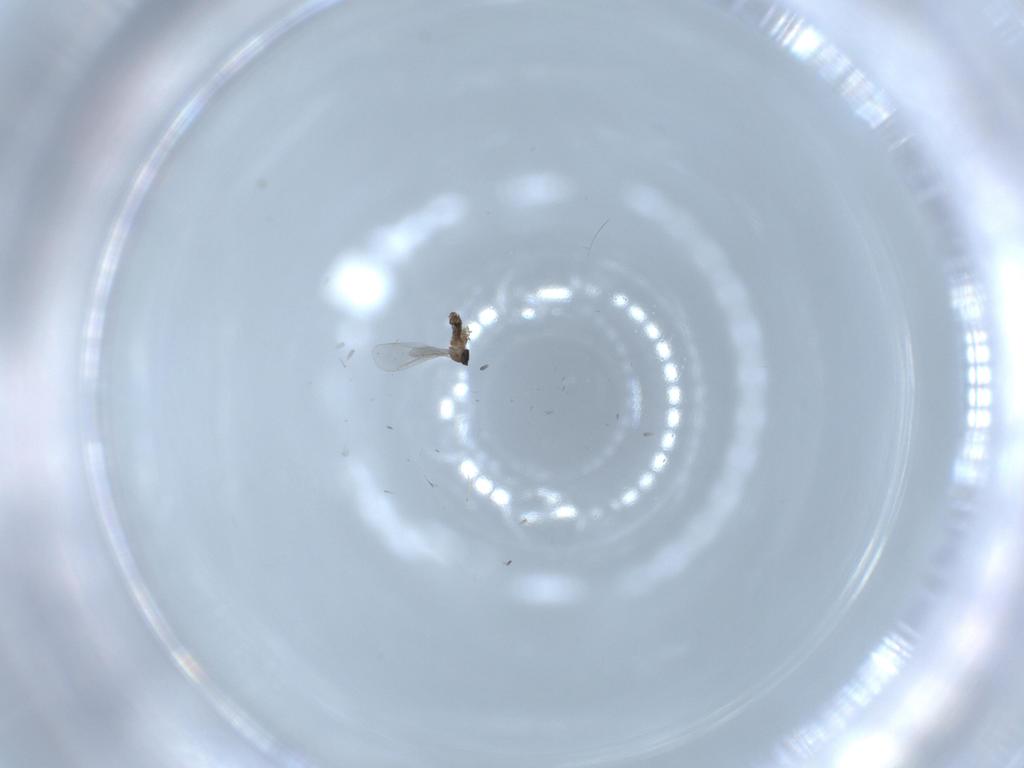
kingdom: Animalia
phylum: Arthropoda
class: Insecta
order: Diptera
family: Cecidomyiidae
